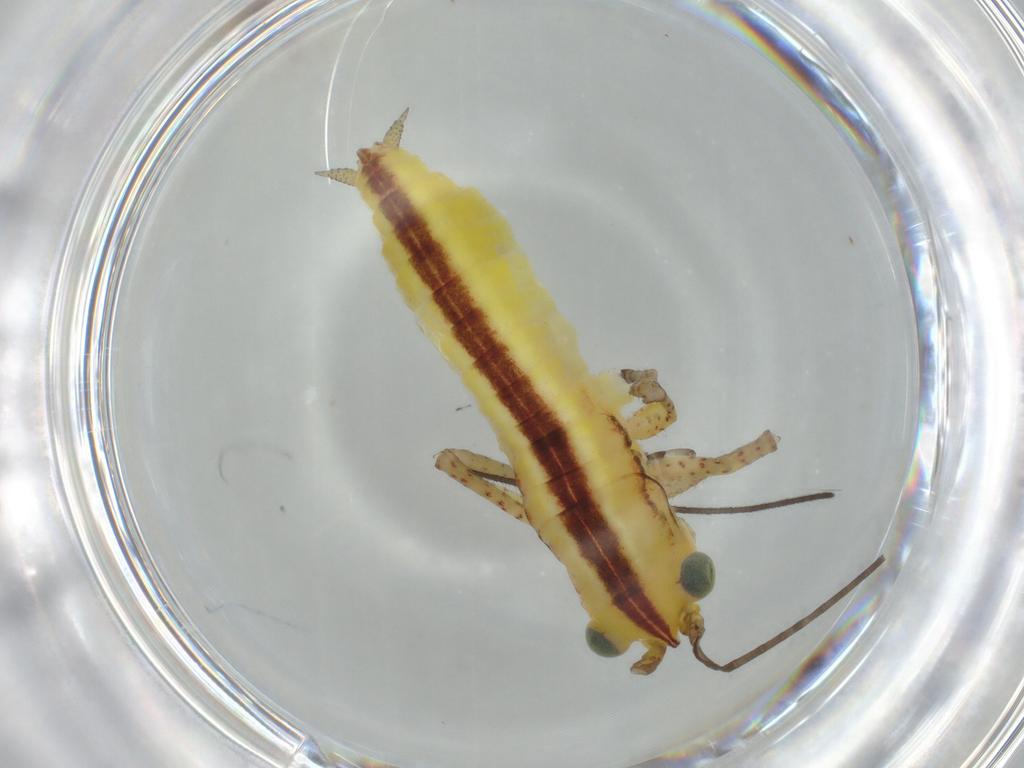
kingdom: Animalia
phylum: Arthropoda
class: Insecta
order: Orthoptera
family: Tettigoniidae
